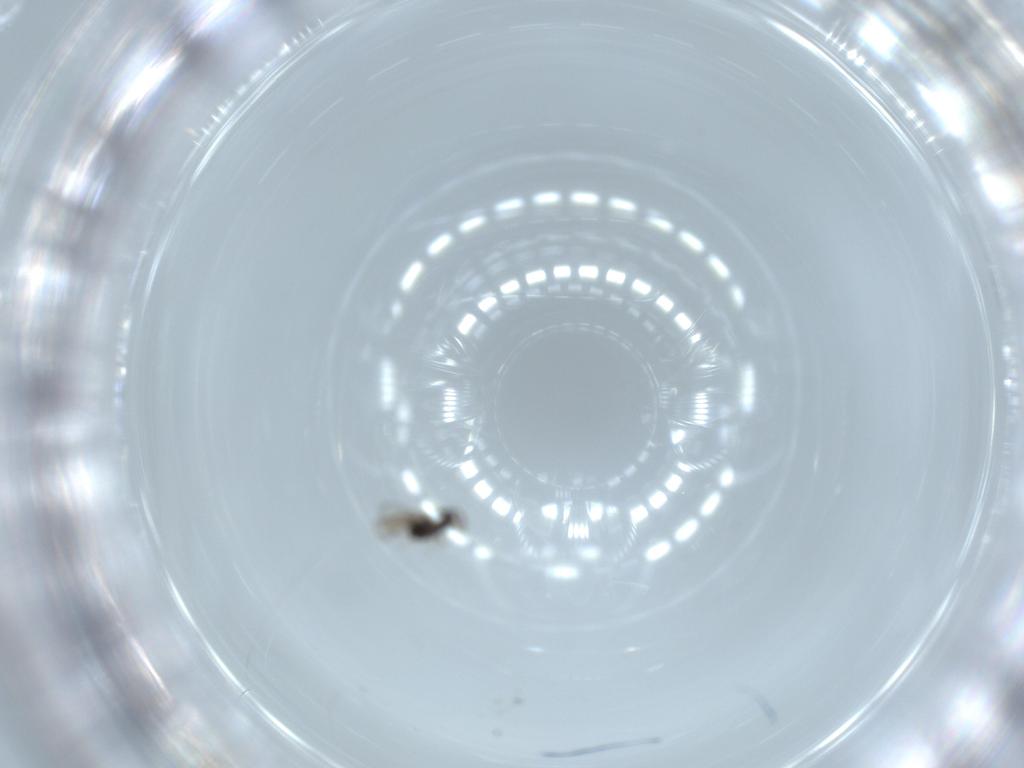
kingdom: Animalia
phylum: Arthropoda
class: Insecta
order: Hymenoptera
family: Trichogrammatidae
